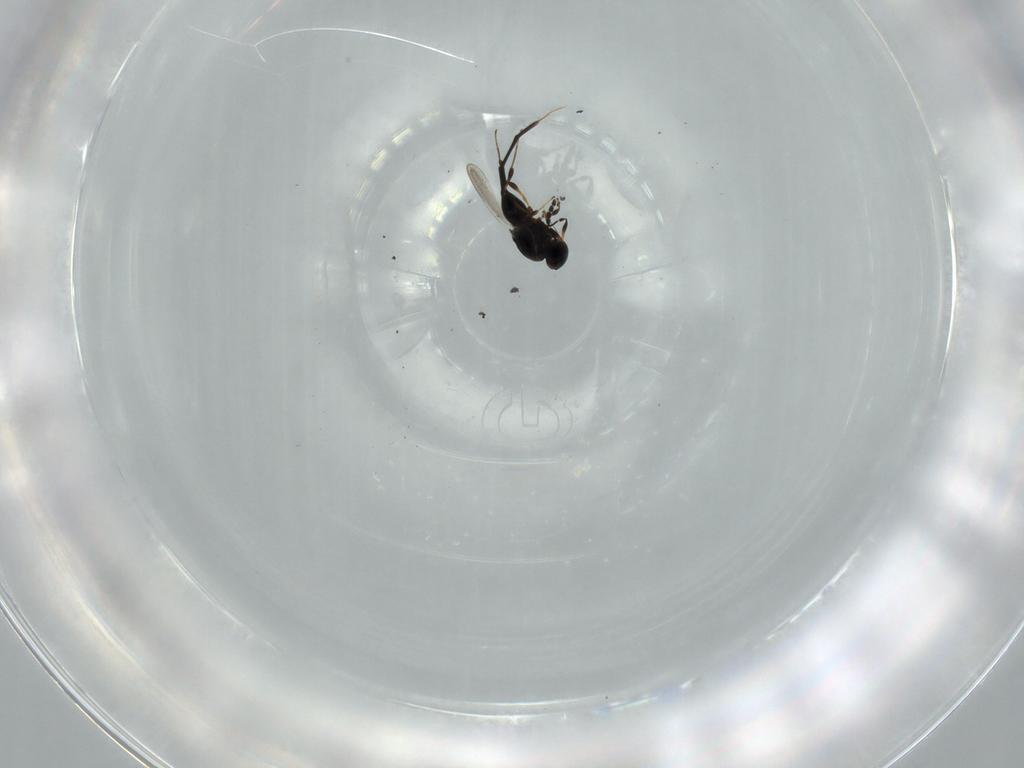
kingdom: Animalia
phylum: Arthropoda
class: Insecta
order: Hymenoptera
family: Platygastridae
